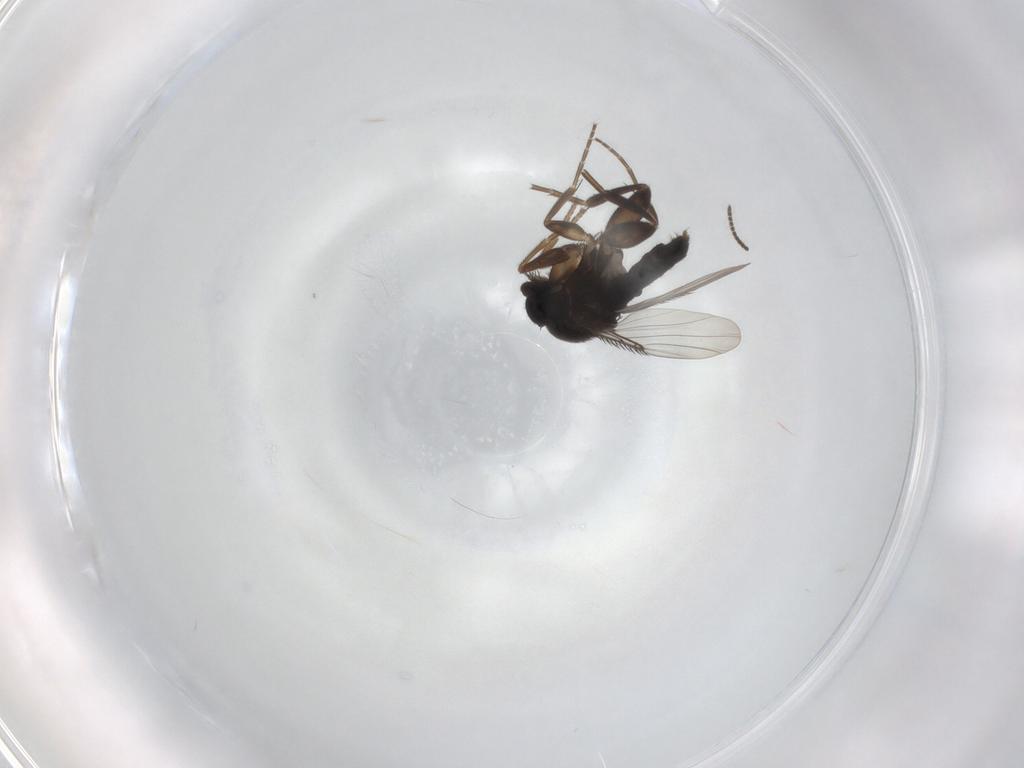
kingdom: Animalia
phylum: Arthropoda
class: Insecta
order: Diptera
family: Phoridae
